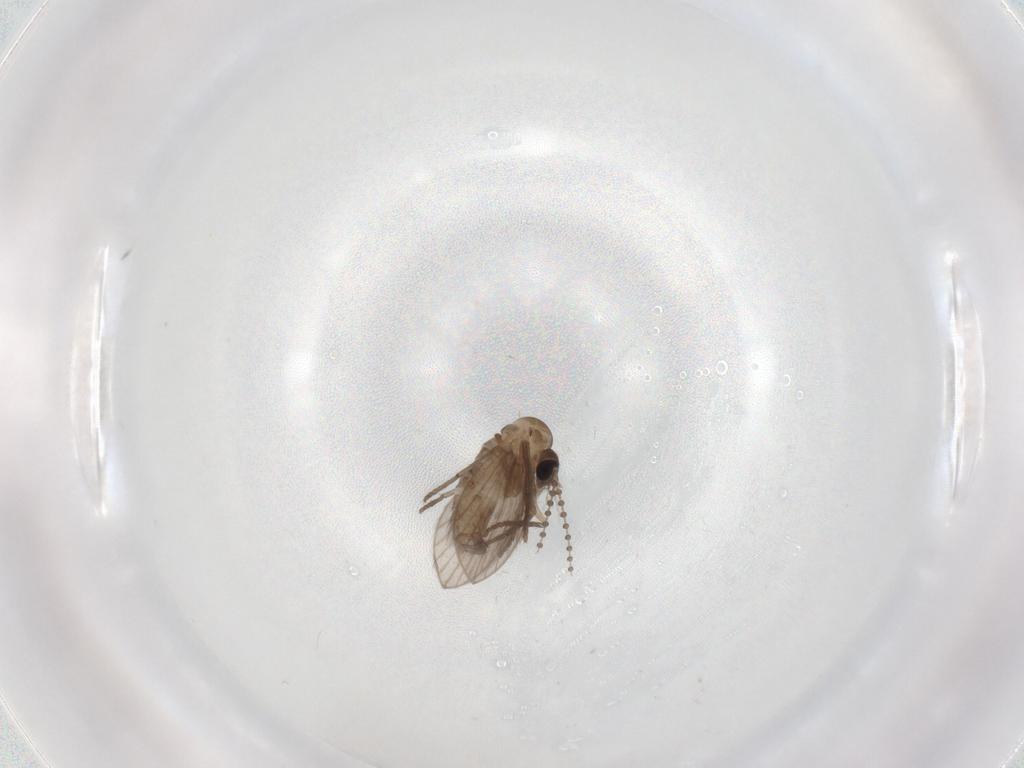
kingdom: Animalia
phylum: Arthropoda
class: Insecta
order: Diptera
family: Psychodidae
